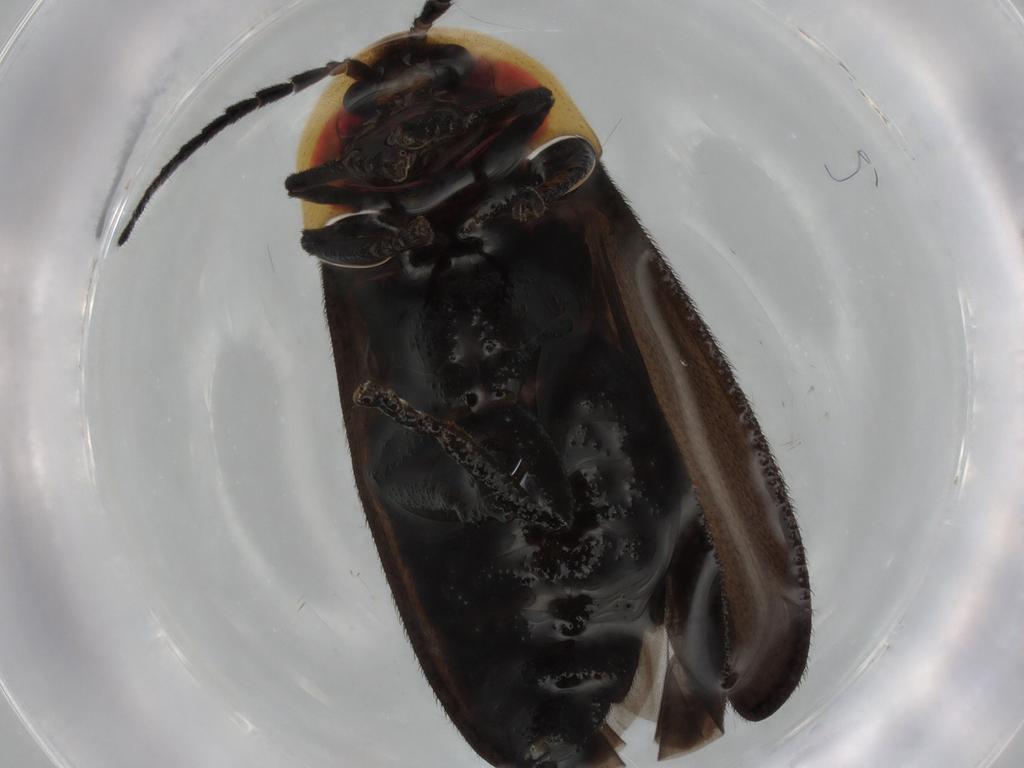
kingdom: Animalia
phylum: Arthropoda
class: Insecta
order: Coleoptera
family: Lampyridae
